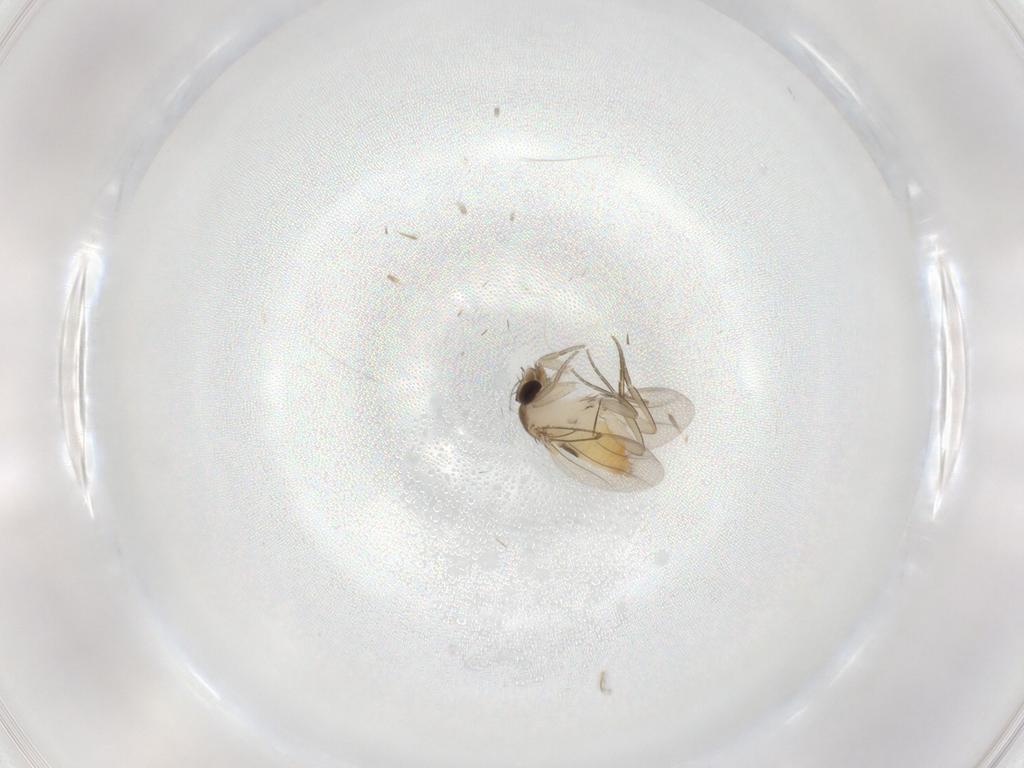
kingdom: Animalia
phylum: Arthropoda
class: Insecta
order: Diptera
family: Phoridae
